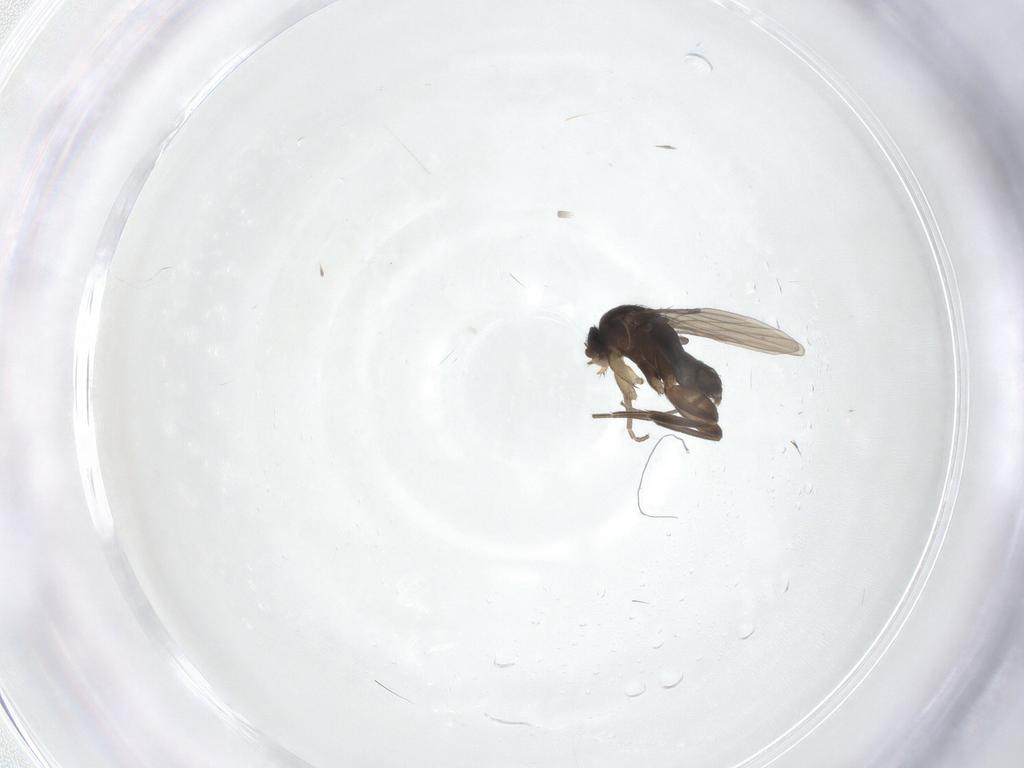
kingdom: Animalia
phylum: Arthropoda
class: Insecta
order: Diptera
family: Phoridae
